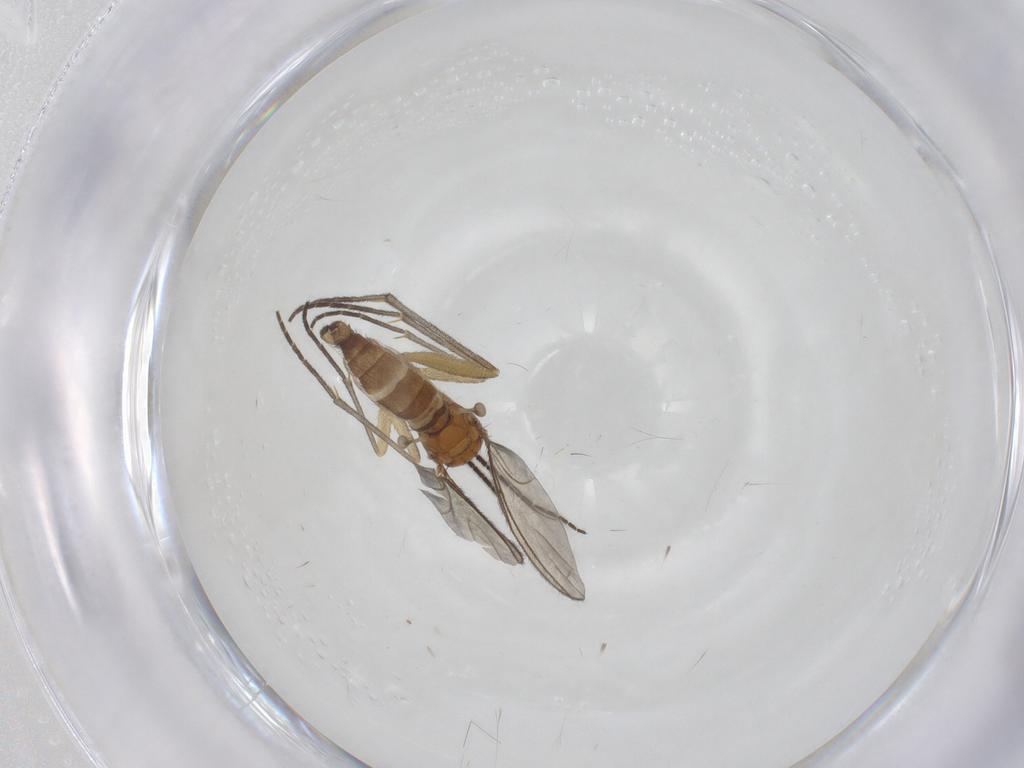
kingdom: Animalia
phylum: Arthropoda
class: Insecta
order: Diptera
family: Sciaridae
